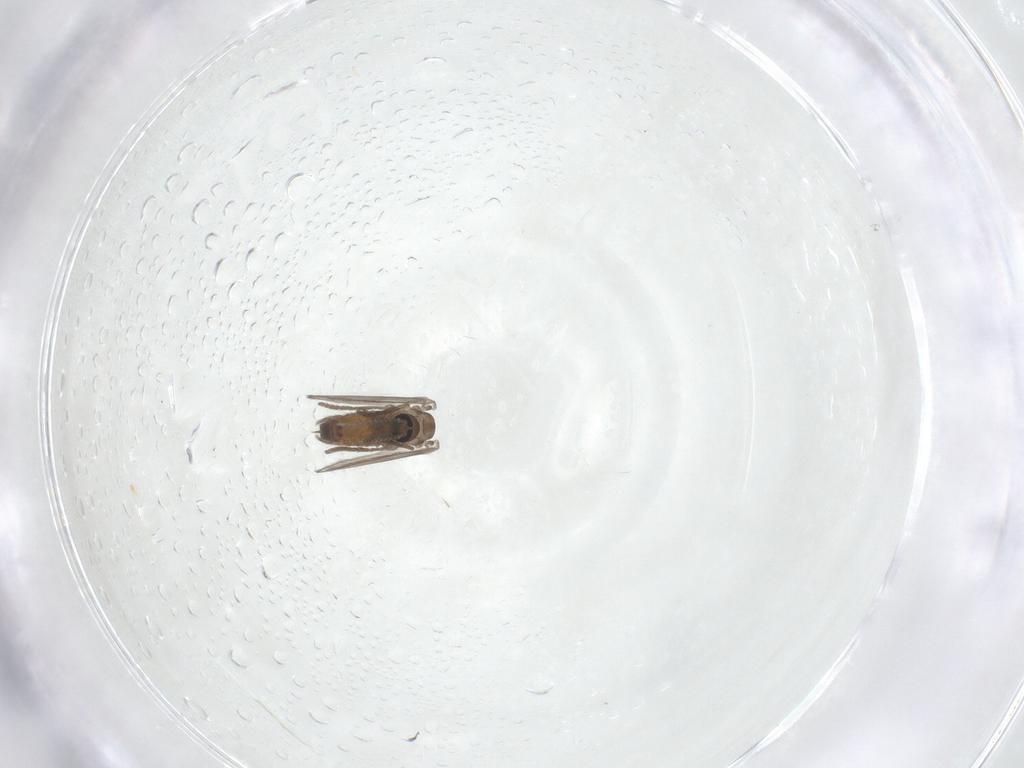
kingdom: Animalia
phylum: Arthropoda
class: Insecta
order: Diptera
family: Psychodidae
